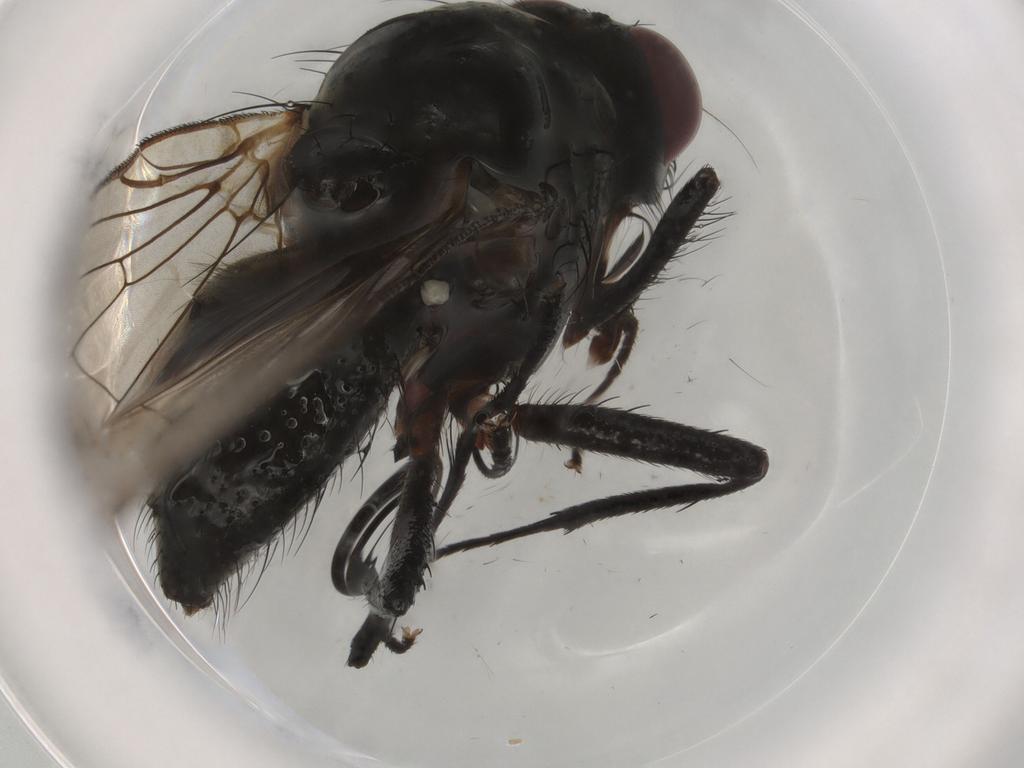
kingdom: Animalia
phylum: Arthropoda
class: Insecta
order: Diptera
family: Anthomyiidae
